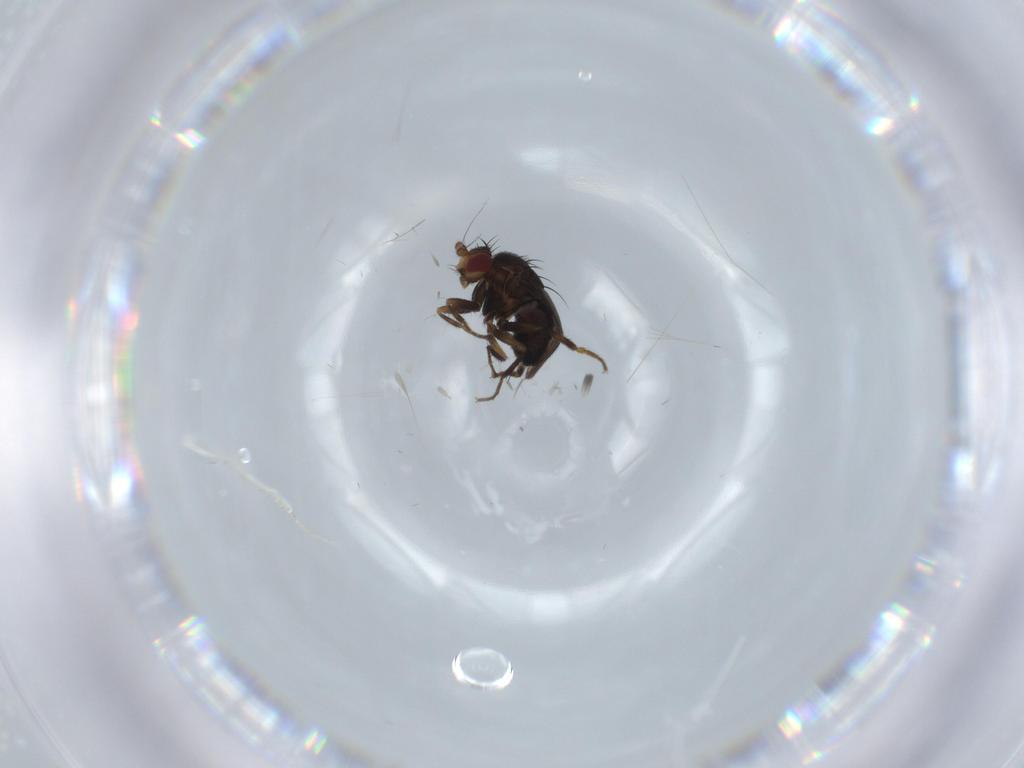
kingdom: Animalia
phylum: Arthropoda
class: Insecta
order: Diptera
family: Sphaeroceridae
